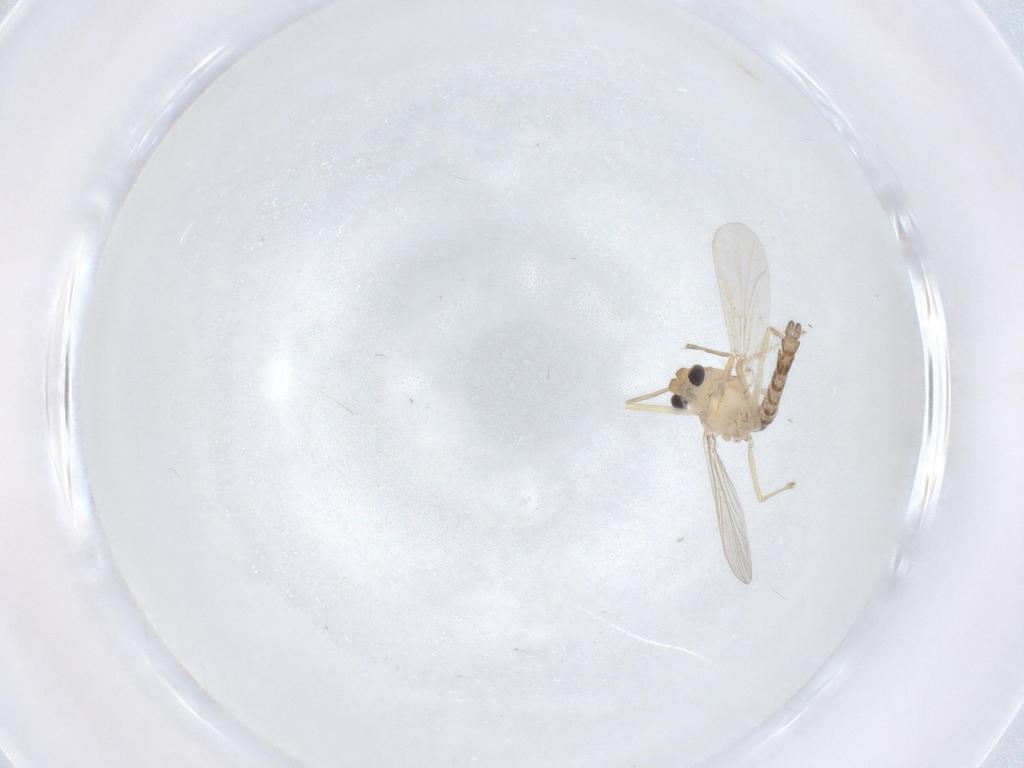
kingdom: Animalia
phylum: Arthropoda
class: Insecta
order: Diptera
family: Chironomidae
